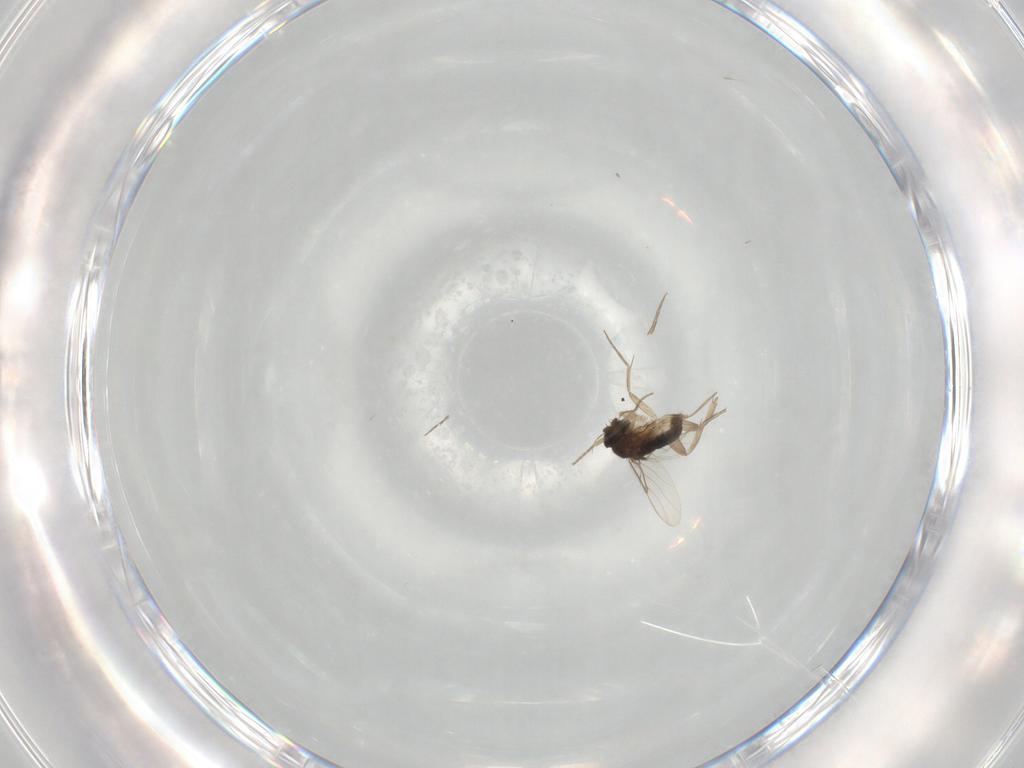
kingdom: Animalia
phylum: Arthropoda
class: Insecta
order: Diptera
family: Phoridae
